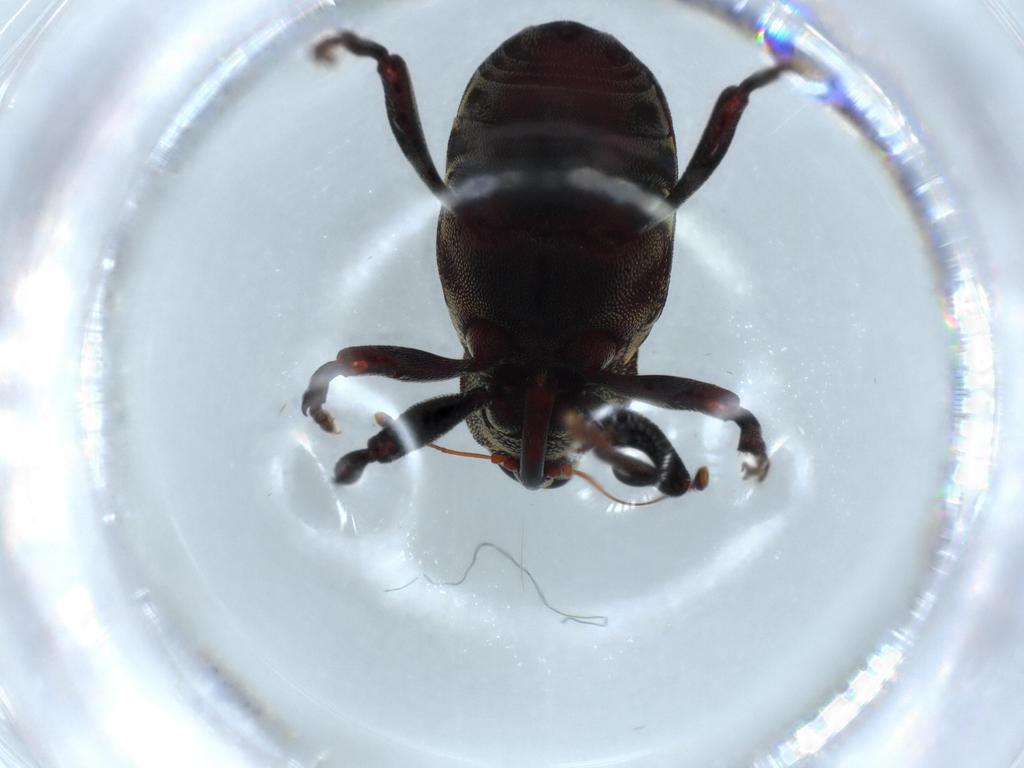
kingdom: Animalia
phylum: Arthropoda
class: Insecta
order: Coleoptera
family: Curculionidae
